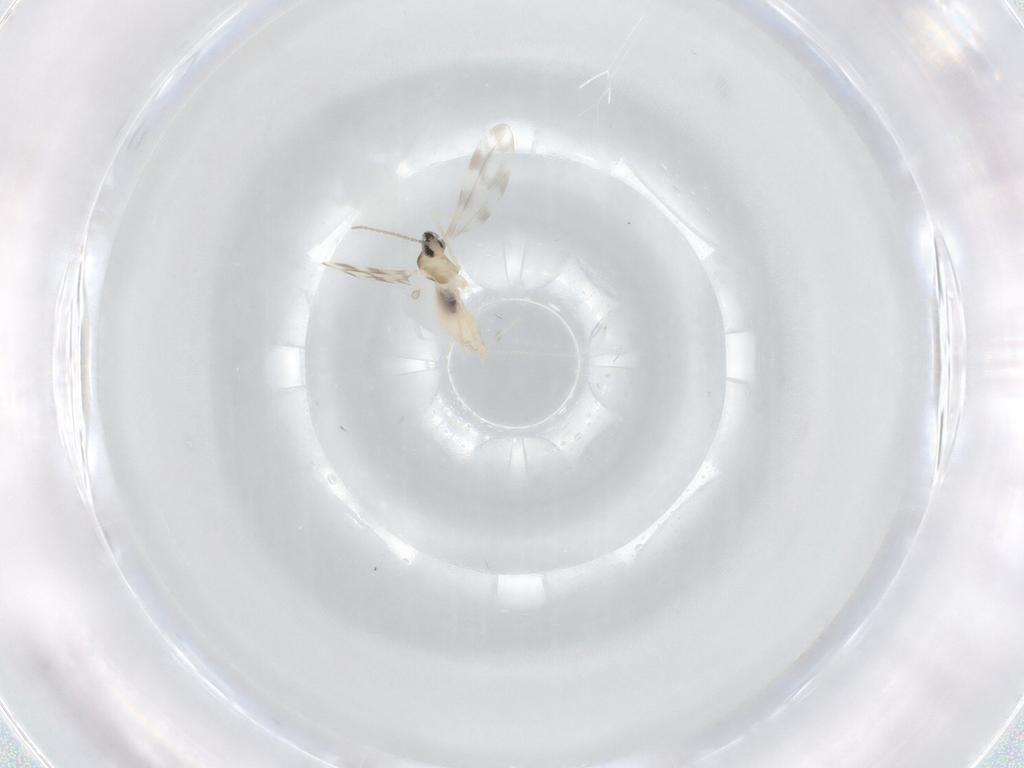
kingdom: Animalia
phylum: Arthropoda
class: Insecta
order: Diptera
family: Cecidomyiidae
